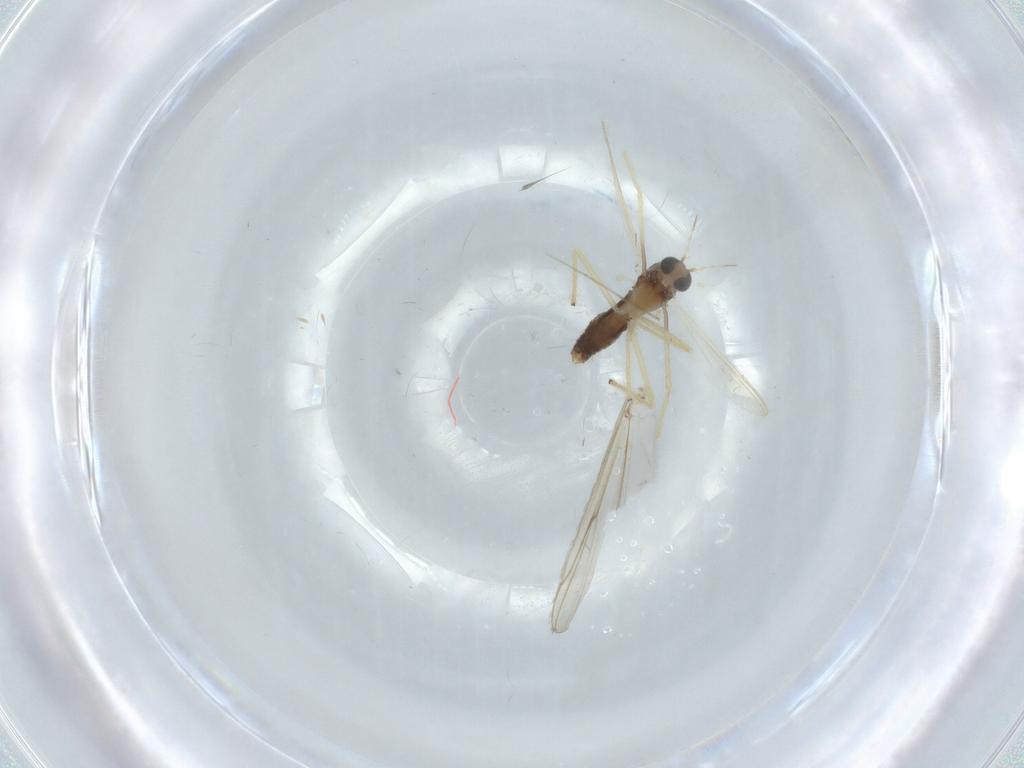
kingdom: Animalia
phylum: Arthropoda
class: Insecta
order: Diptera
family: Chironomidae
